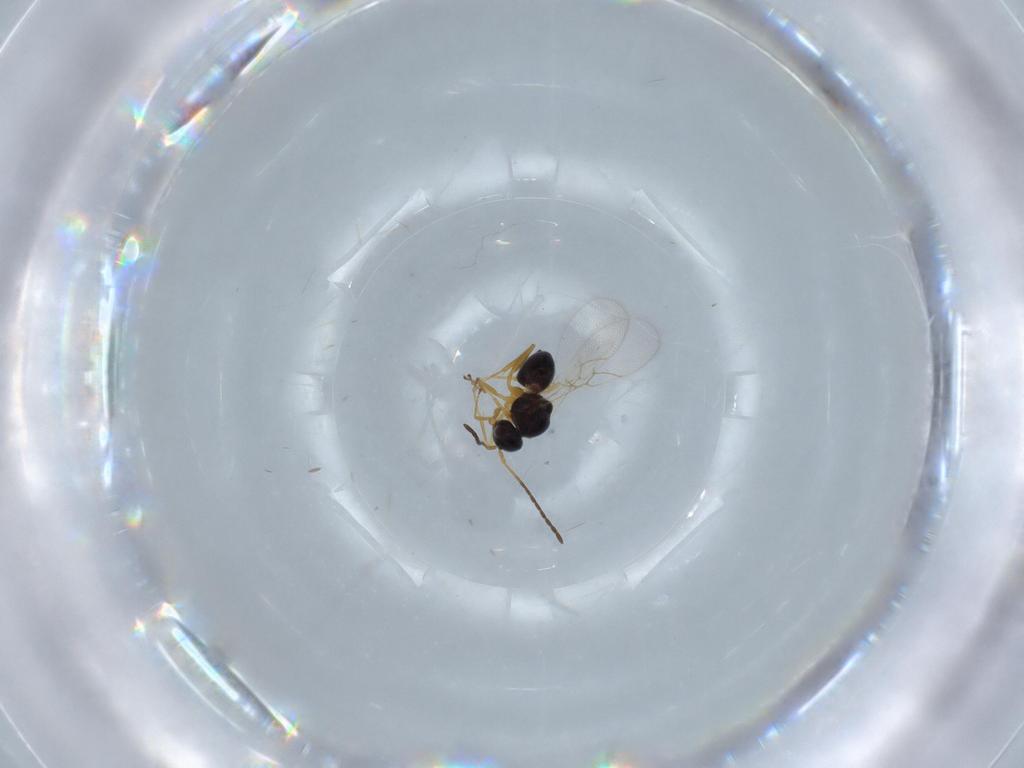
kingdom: Animalia
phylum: Arthropoda
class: Insecta
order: Hymenoptera
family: Figitidae
